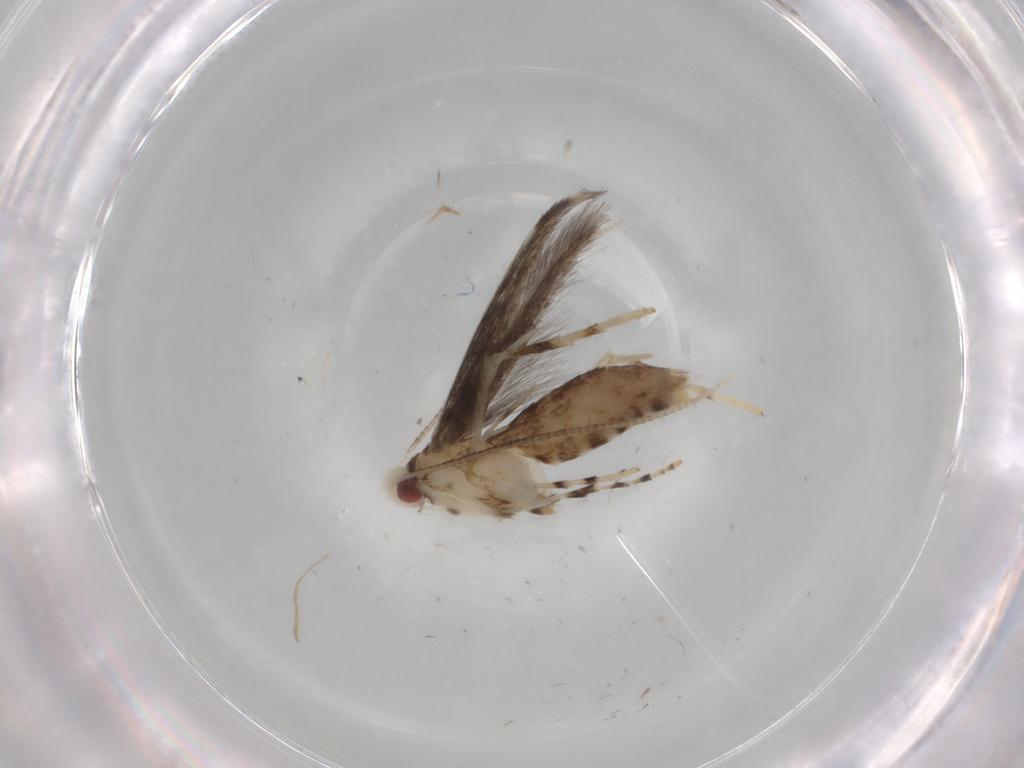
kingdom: Animalia
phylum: Arthropoda
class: Insecta
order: Lepidoptera
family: Gracillariidae
